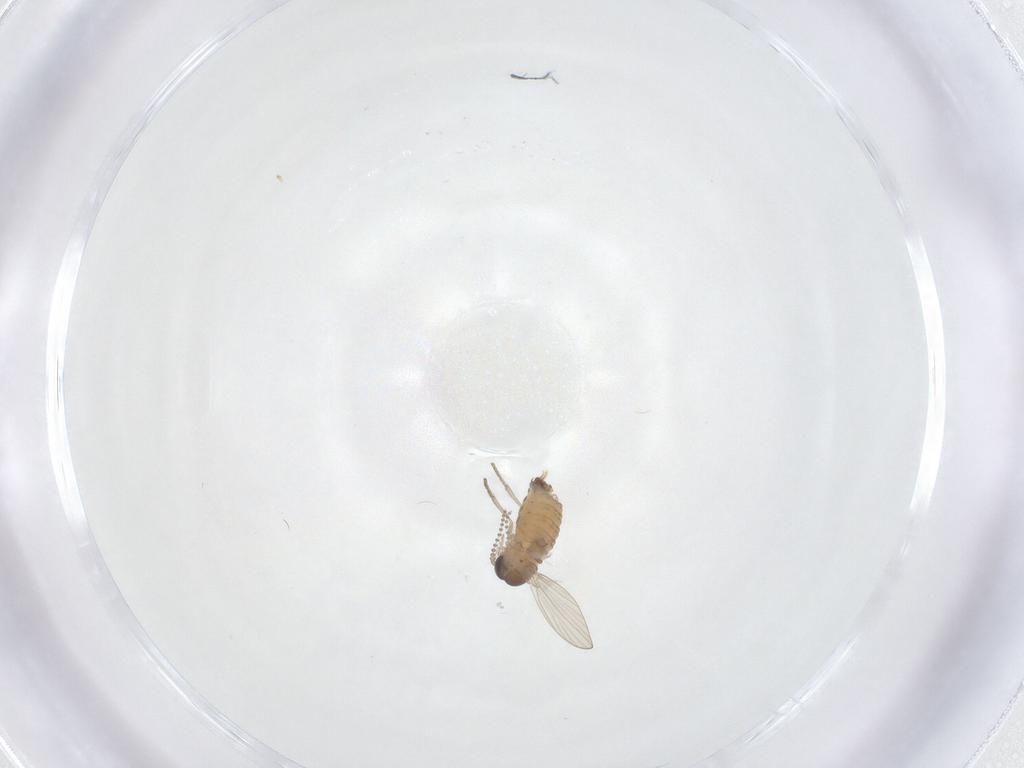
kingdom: Animalia
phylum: Arthropoda
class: Insecta
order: Diptera
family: Psychodidae
